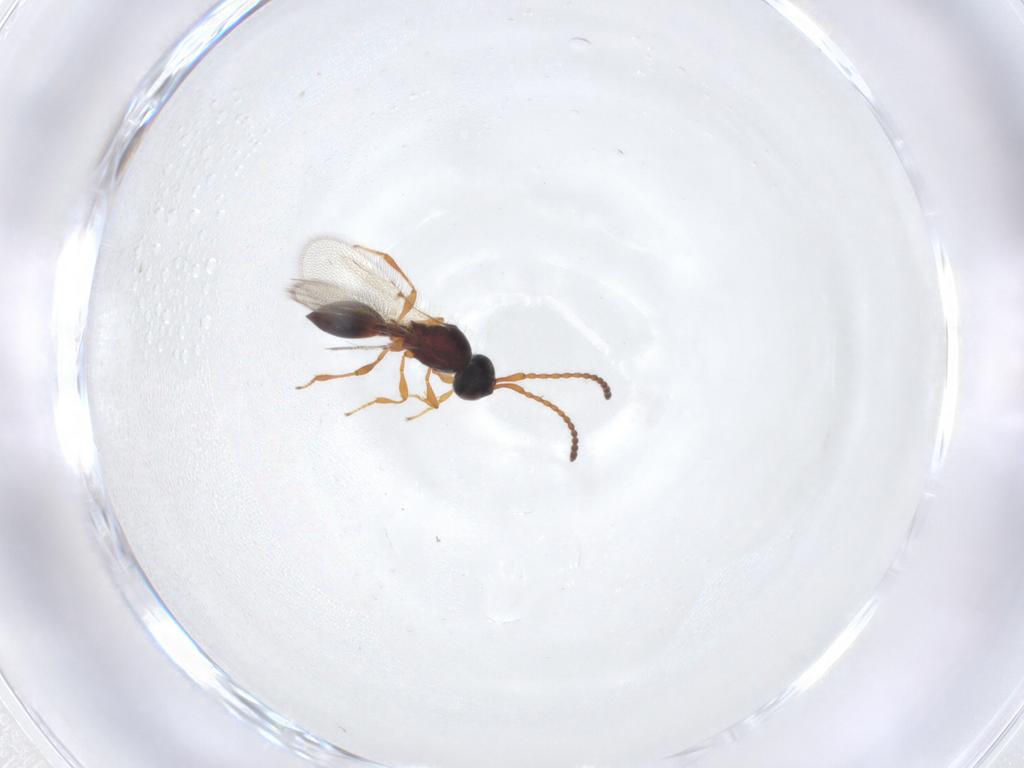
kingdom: Animalia
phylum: Arthropoda
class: Insecta
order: Hymenoptera
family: Diapriidae
